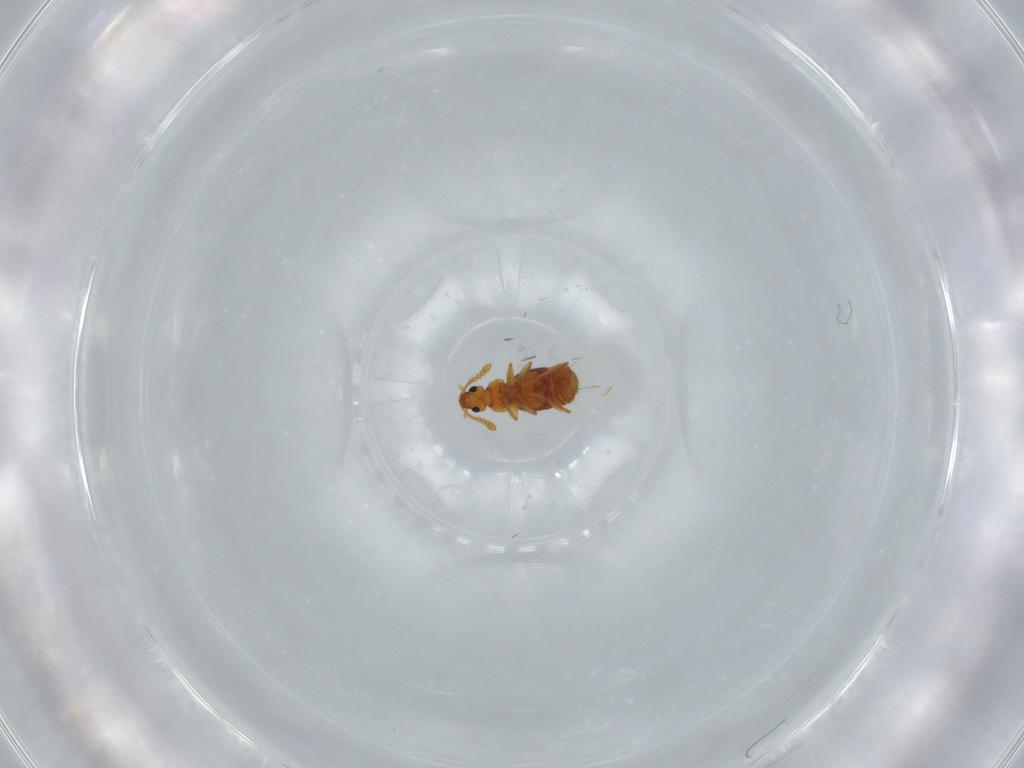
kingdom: Animalia
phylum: Arthropoda
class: Insecta
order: Coleoptera
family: Staphylinidae
